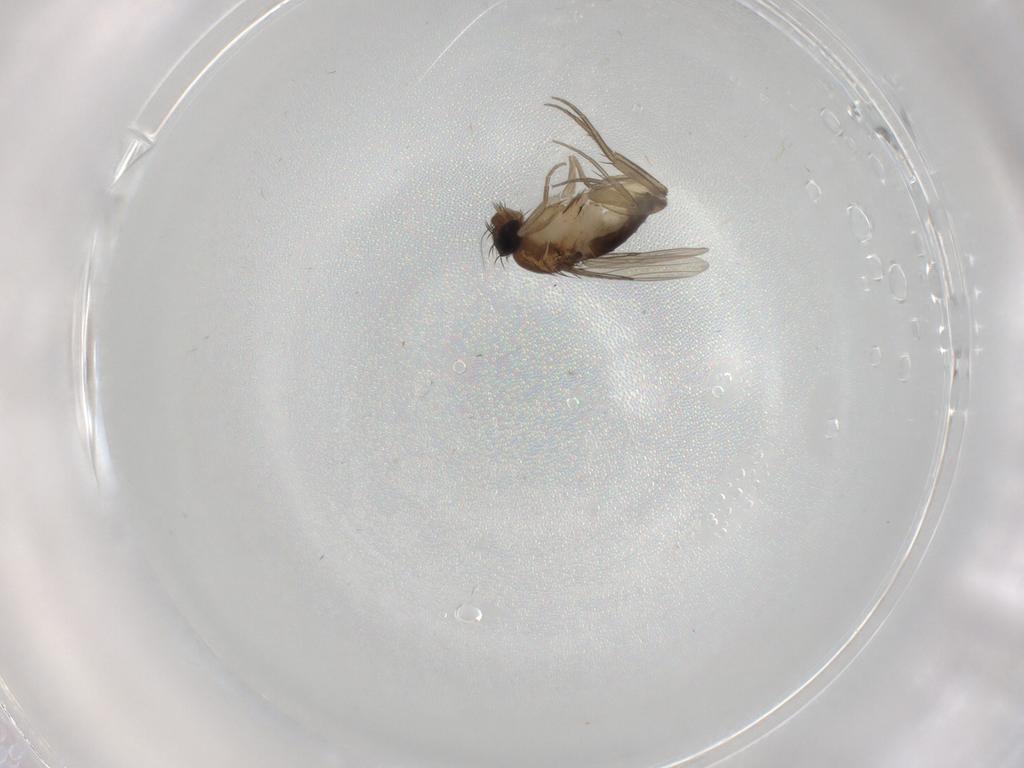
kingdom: Animalia
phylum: Arthropoda
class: Insecta
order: Diptera
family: Phoridae
